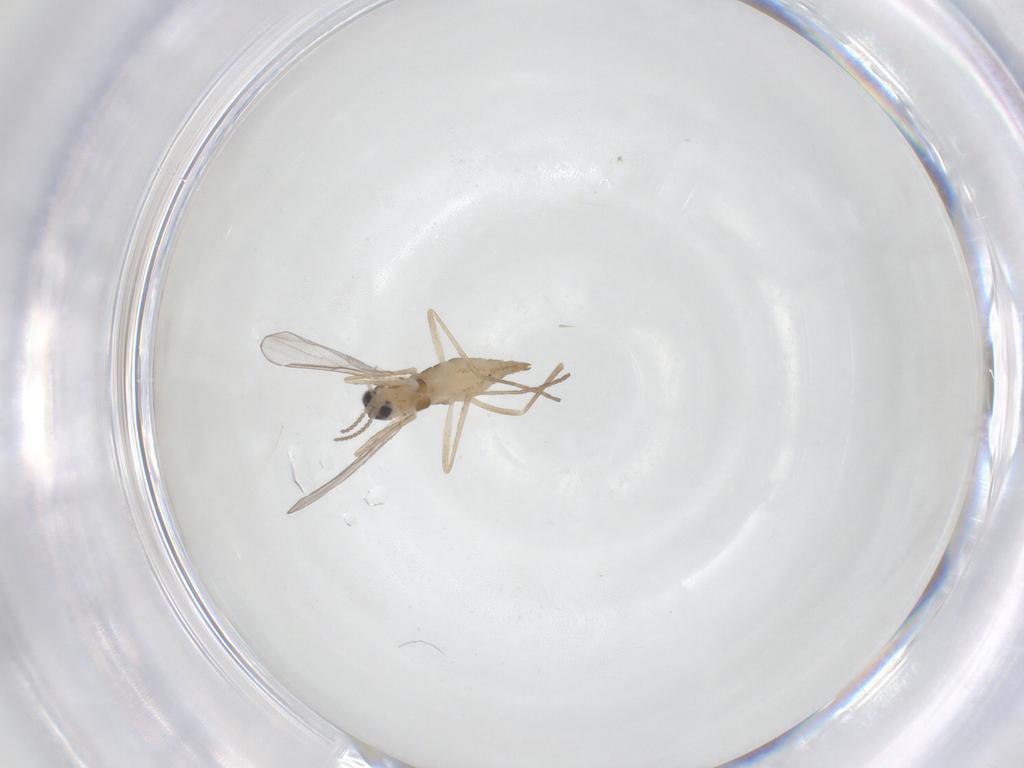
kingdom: Animalia
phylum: Arthropoda
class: Insecta
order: Diptera
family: Cecidomyiidae
